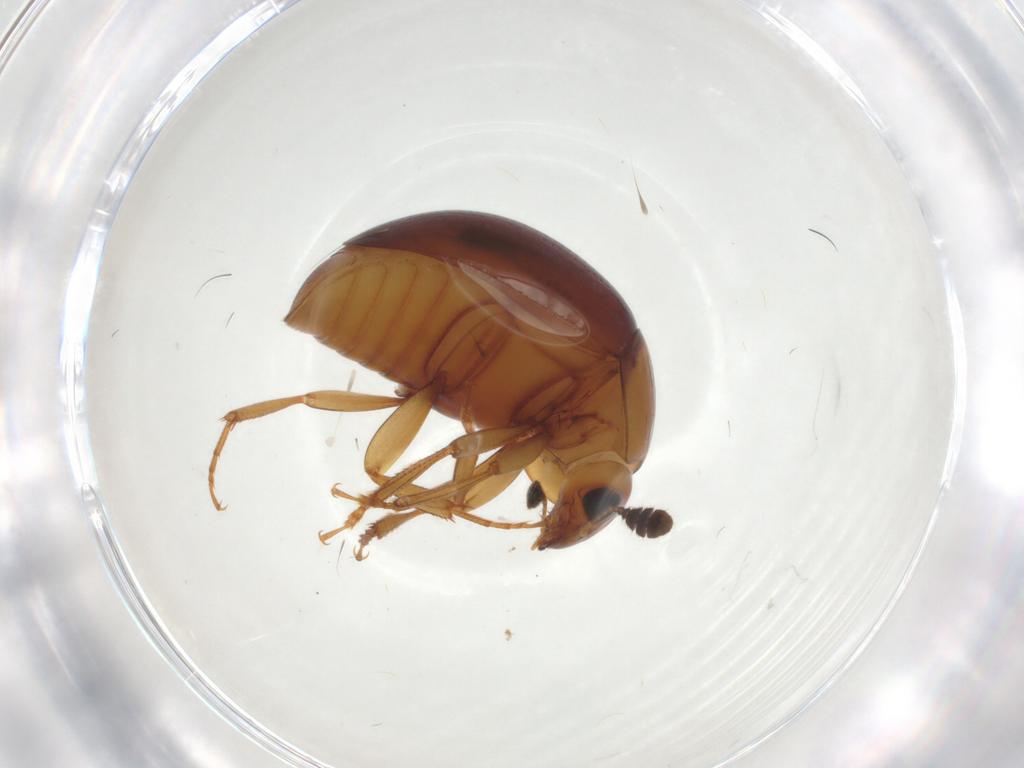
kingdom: Animalia
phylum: Arthropoda
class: Insecta
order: Coleoptera
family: Nitidulidae
